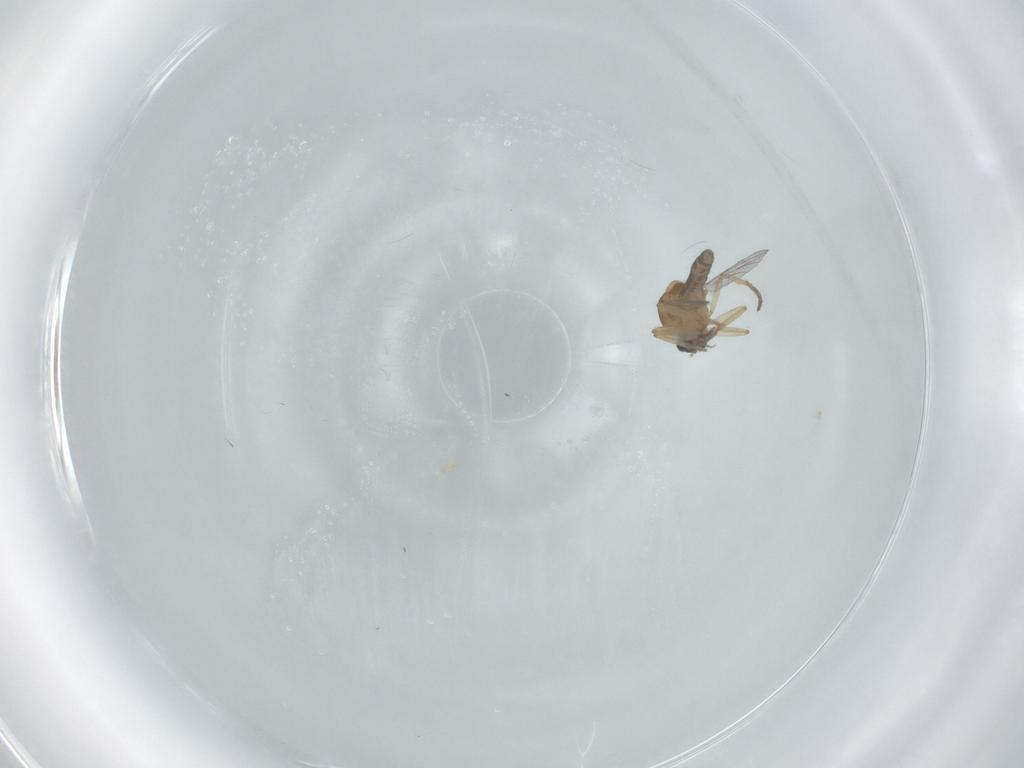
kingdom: Animalia
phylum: Arthropoda
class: Insecta
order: Diptera
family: Ceratopogonidae
